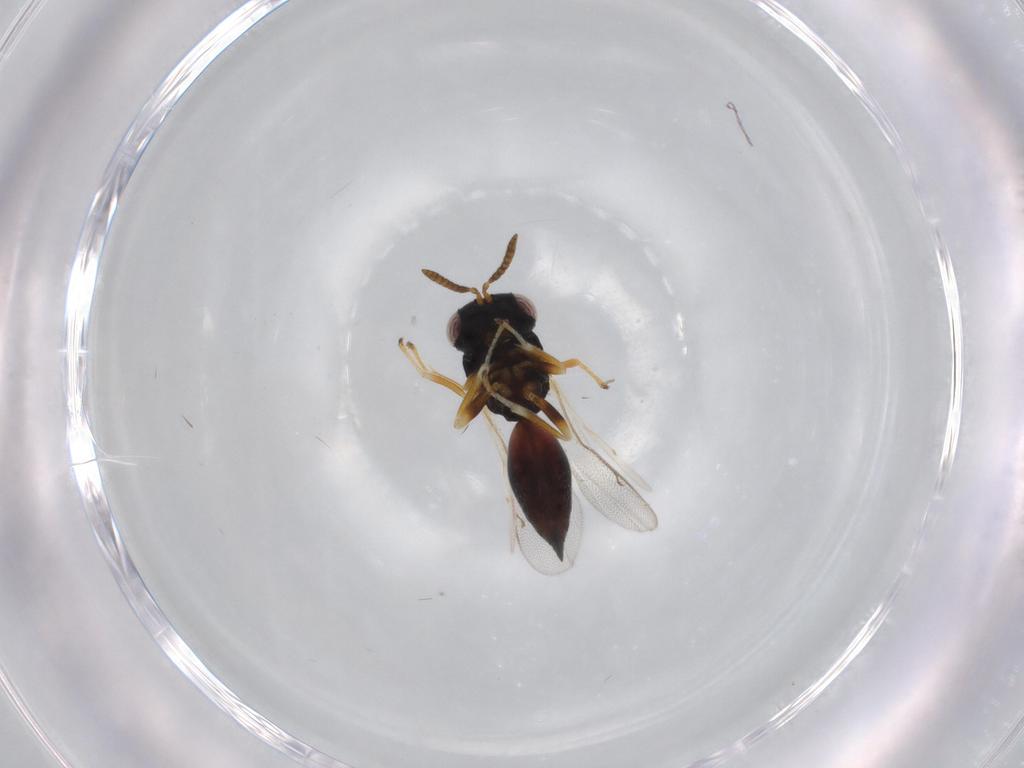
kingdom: Animalia
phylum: Arthropoda
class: Insecta
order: Hymenoptera
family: Pteromalidae
